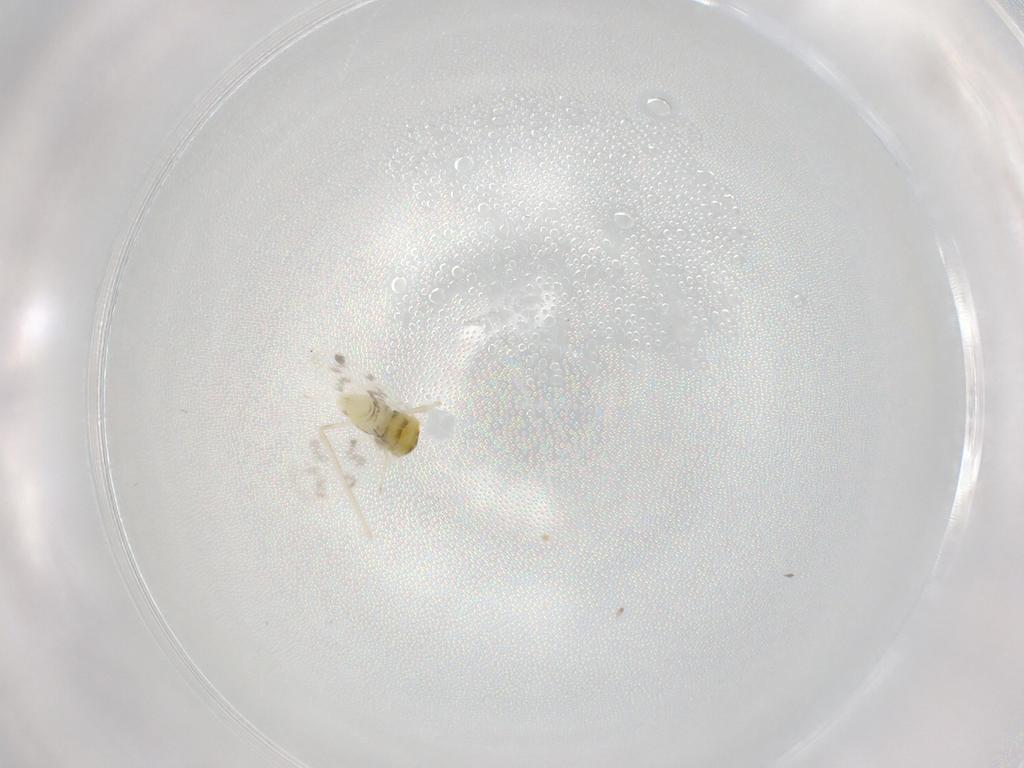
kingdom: Animalia
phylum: Arthropoda
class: Insecta
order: Hemiptera
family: Aleyrodidae
